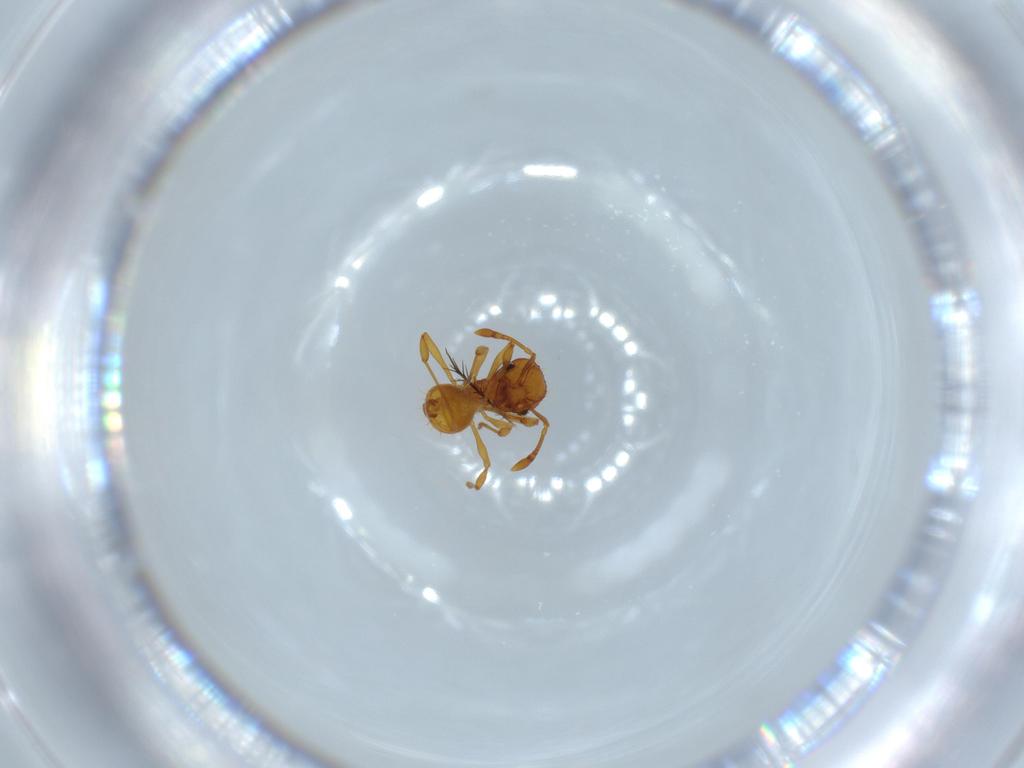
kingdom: Animalia
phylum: Arthropoda
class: Insecta
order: Hymenoptera
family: Formicidae
